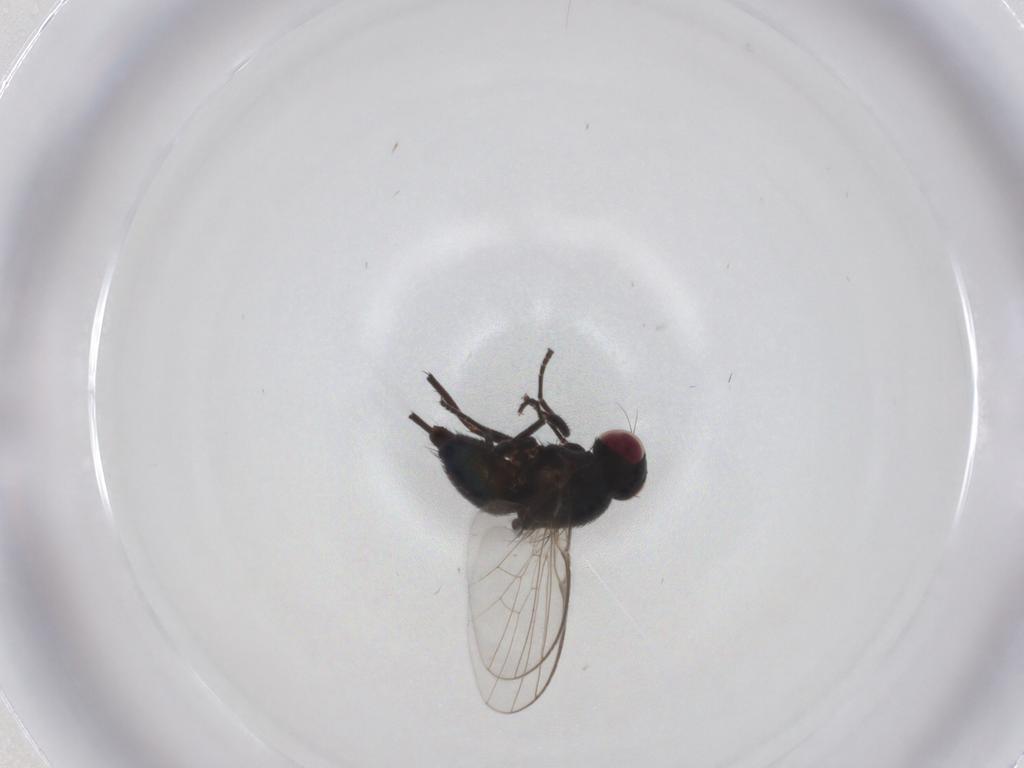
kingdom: Animalia
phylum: Arthropoda
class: Insecta
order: Diptera
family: Agromyzidae
